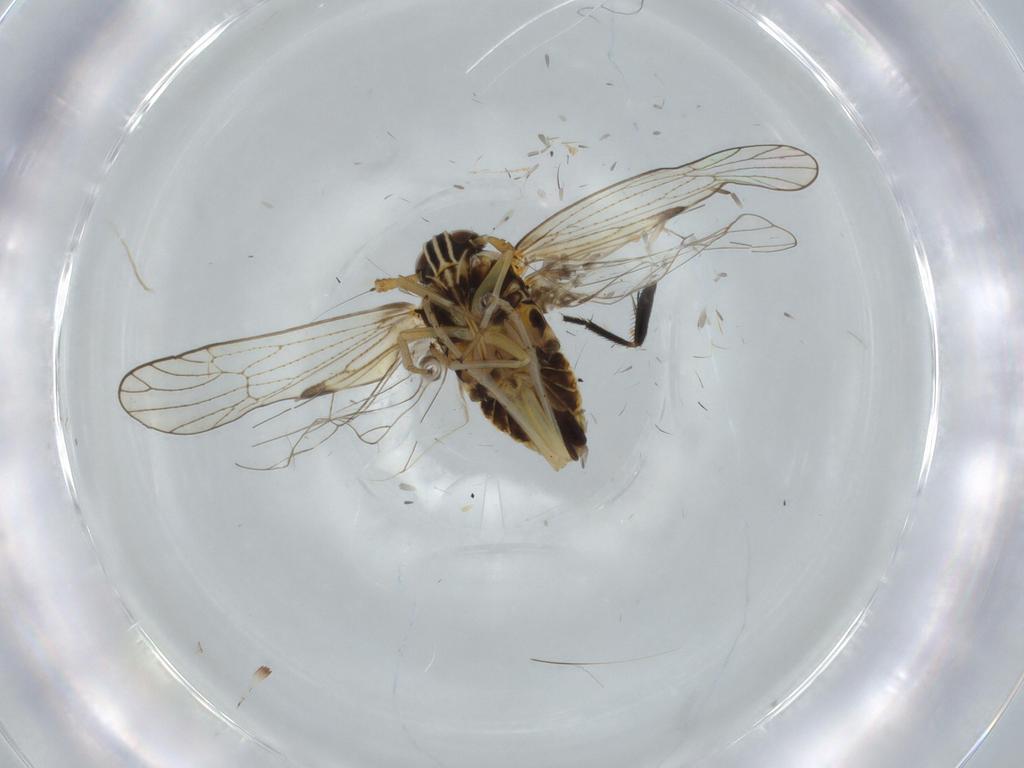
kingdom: Animalia
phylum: Arthropoda
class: Insecta
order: Hemiptera
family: Cicadellidae
